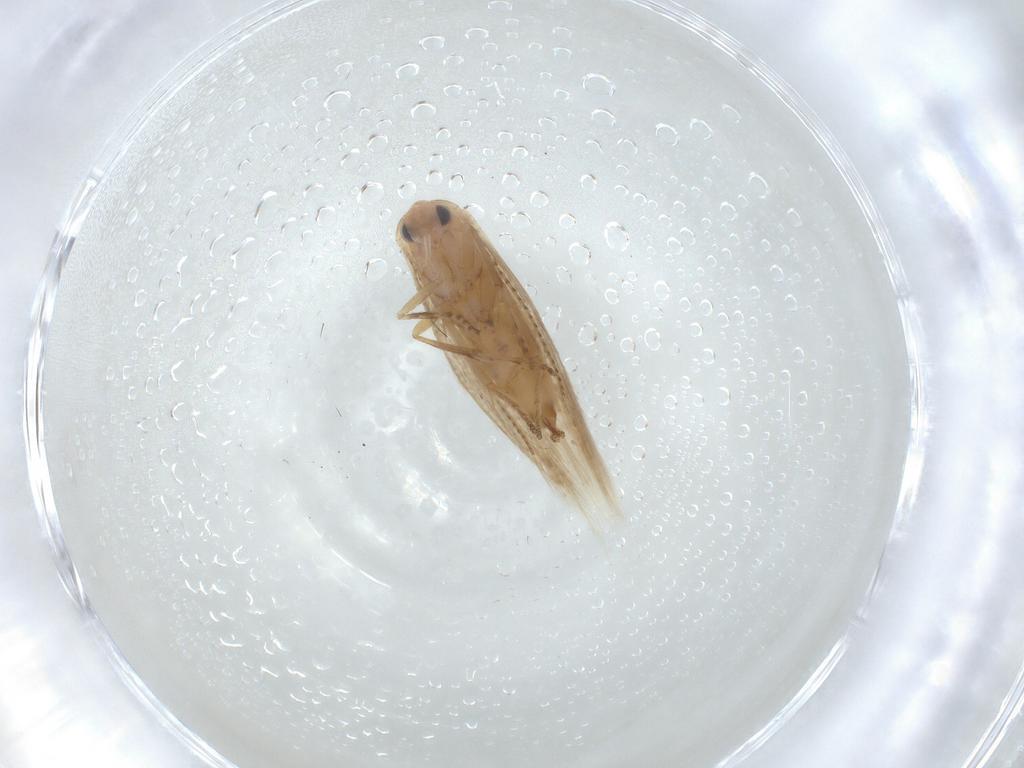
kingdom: Animalia
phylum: Arthropoda
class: Insecta
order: Lepidoptera
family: Bucculatricidae
